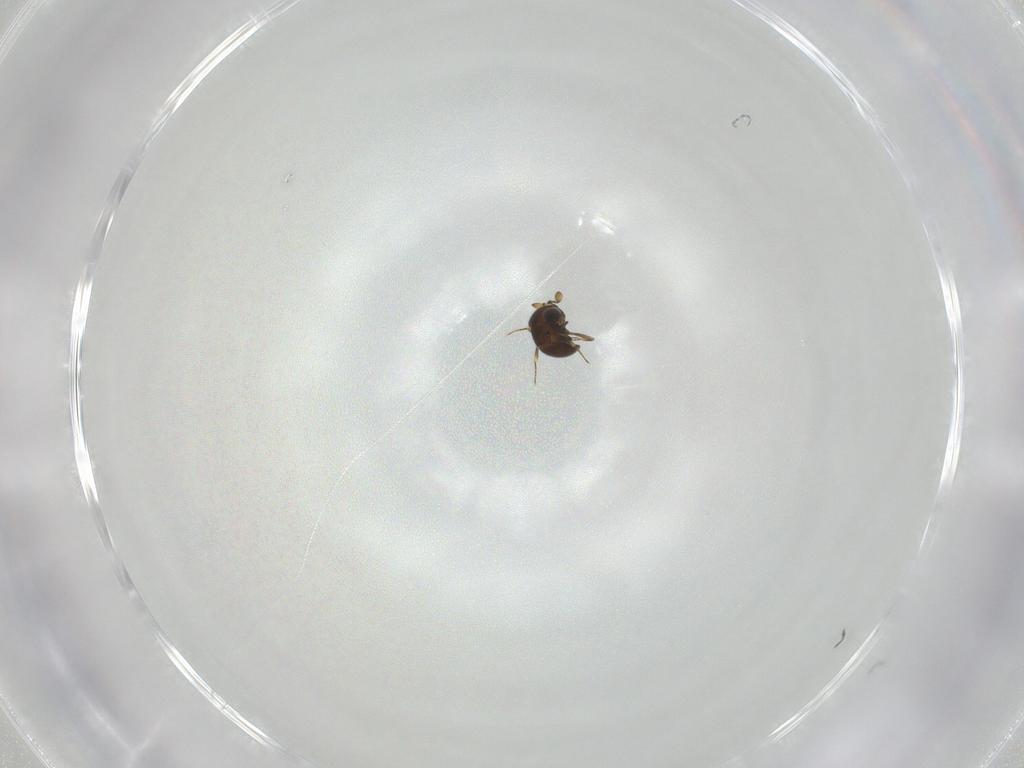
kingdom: Animalia
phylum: Arthropoda
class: Insecta
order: Hymenoptera
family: Scelionidae
